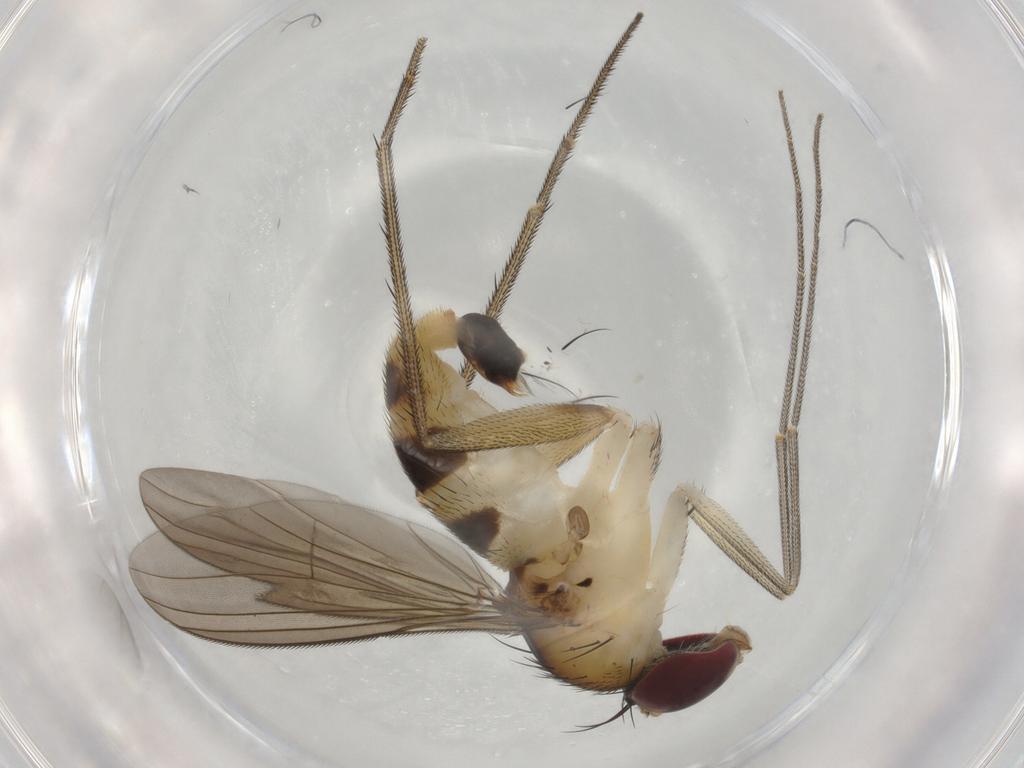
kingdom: Animalia
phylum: Arthropoda
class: Insecta
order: Diptera
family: Dolichopodidae
